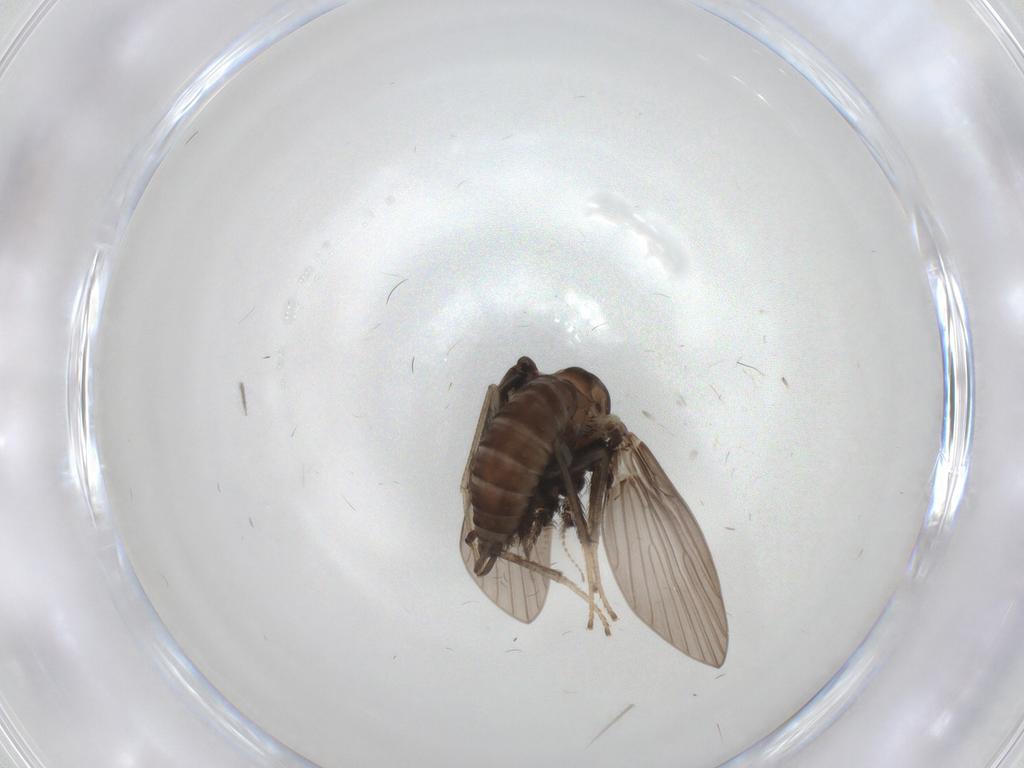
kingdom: Animalia
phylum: Arthropoda
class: Insecta
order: Diptera
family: Psychodidae
